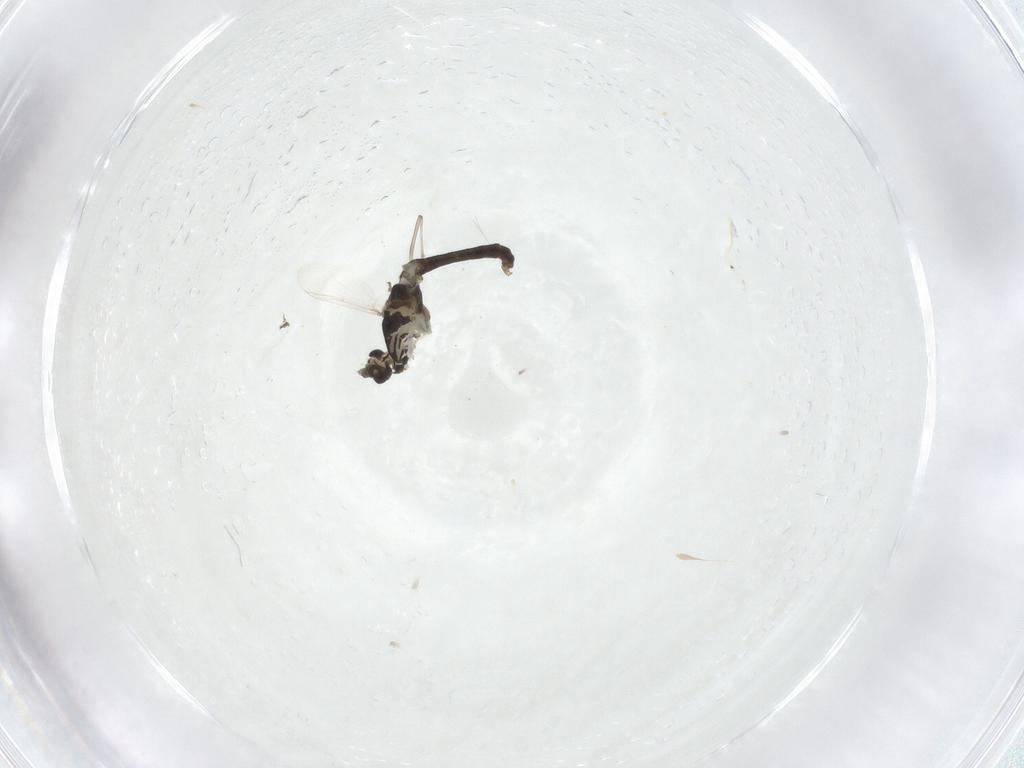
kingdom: Animalia
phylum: Arthropoda
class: Insecta
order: Diptera
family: Chironomidae
